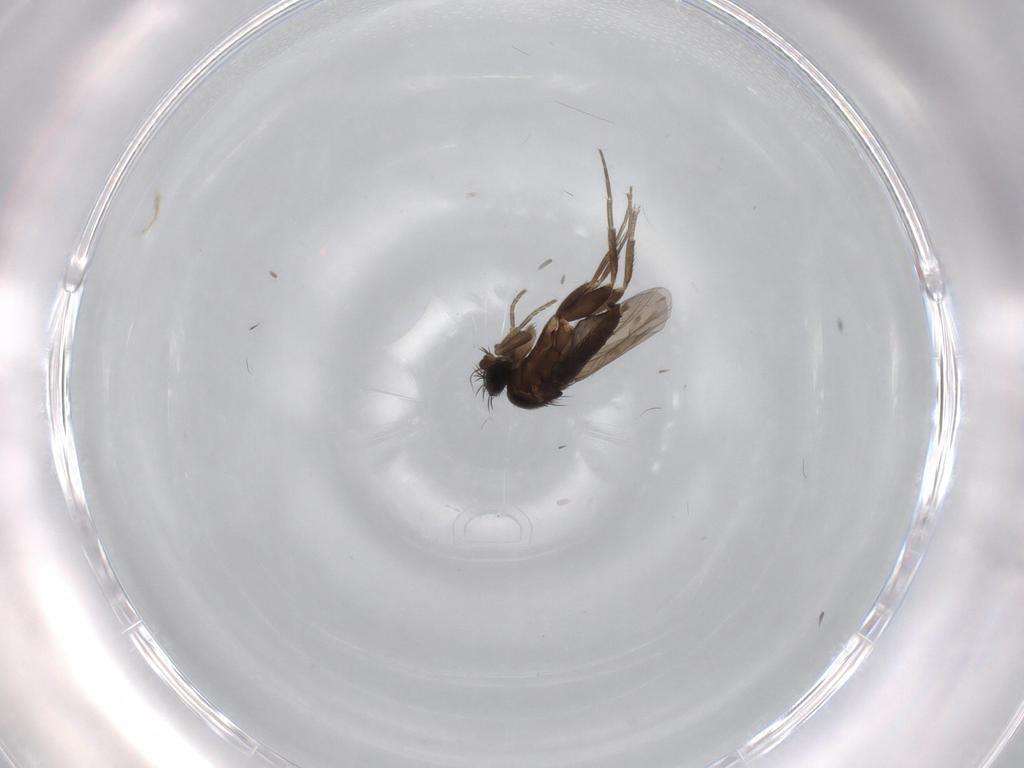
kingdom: Animalia
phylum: Arthropoda
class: Insecta
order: Diptera
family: Phoridae
